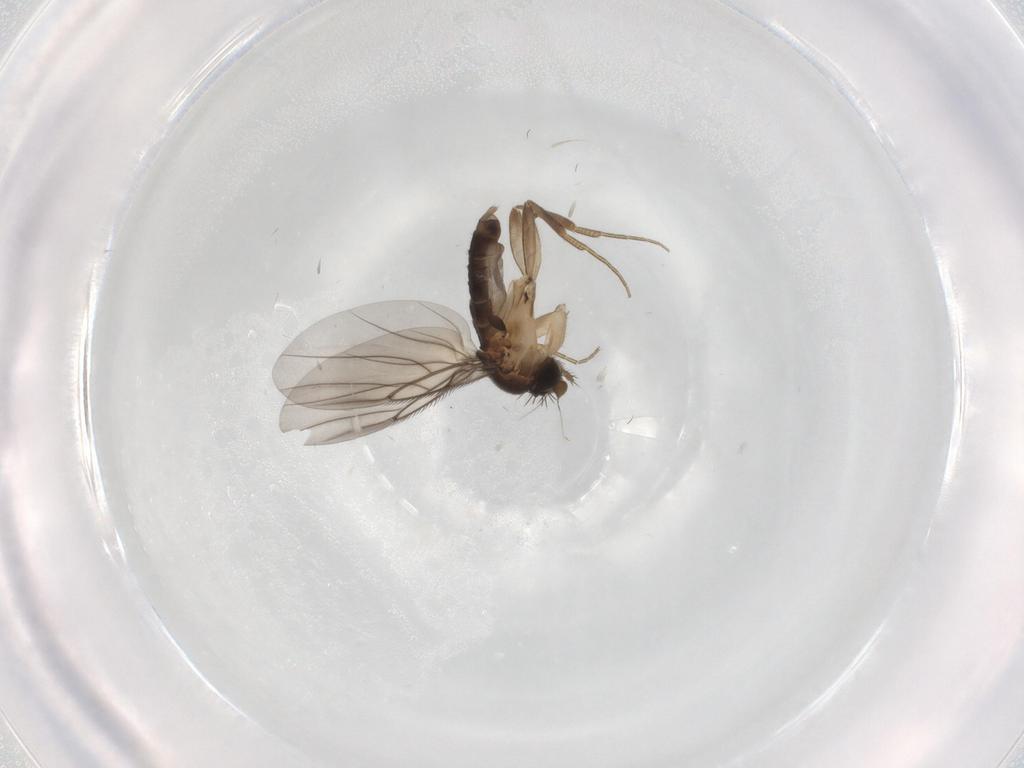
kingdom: Animalia
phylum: Arthropoda
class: Insecta
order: Diptera
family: Phoridae
